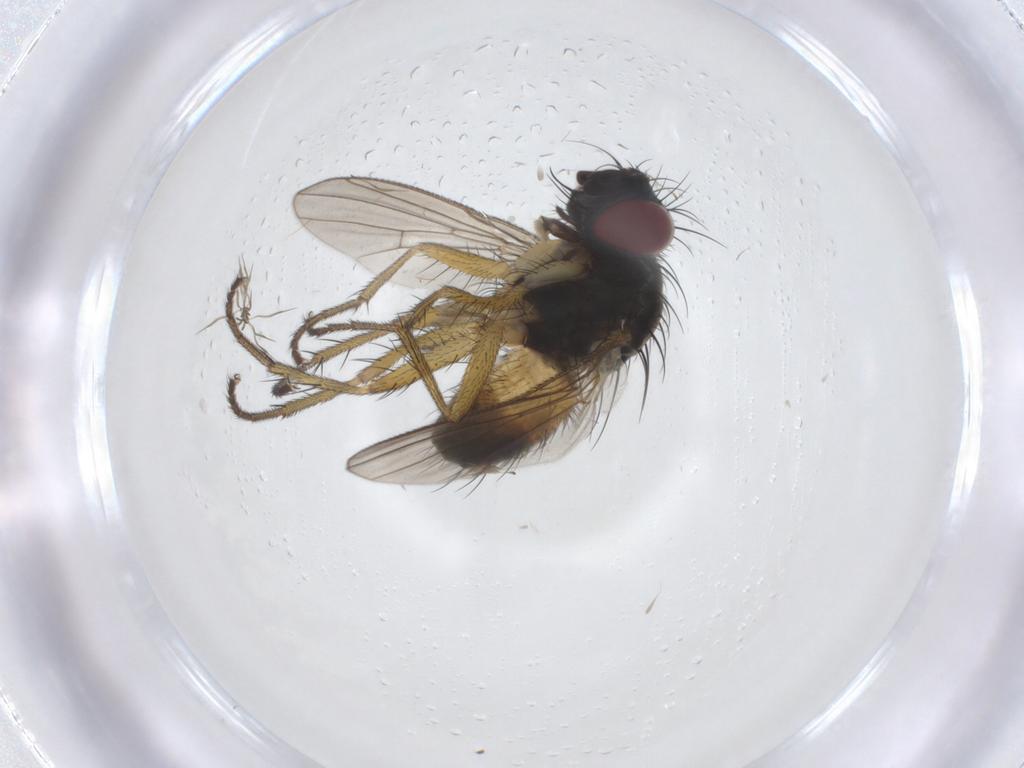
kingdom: Animalia
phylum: Arthropoda
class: Insecta
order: Diptera
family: Muscidae
